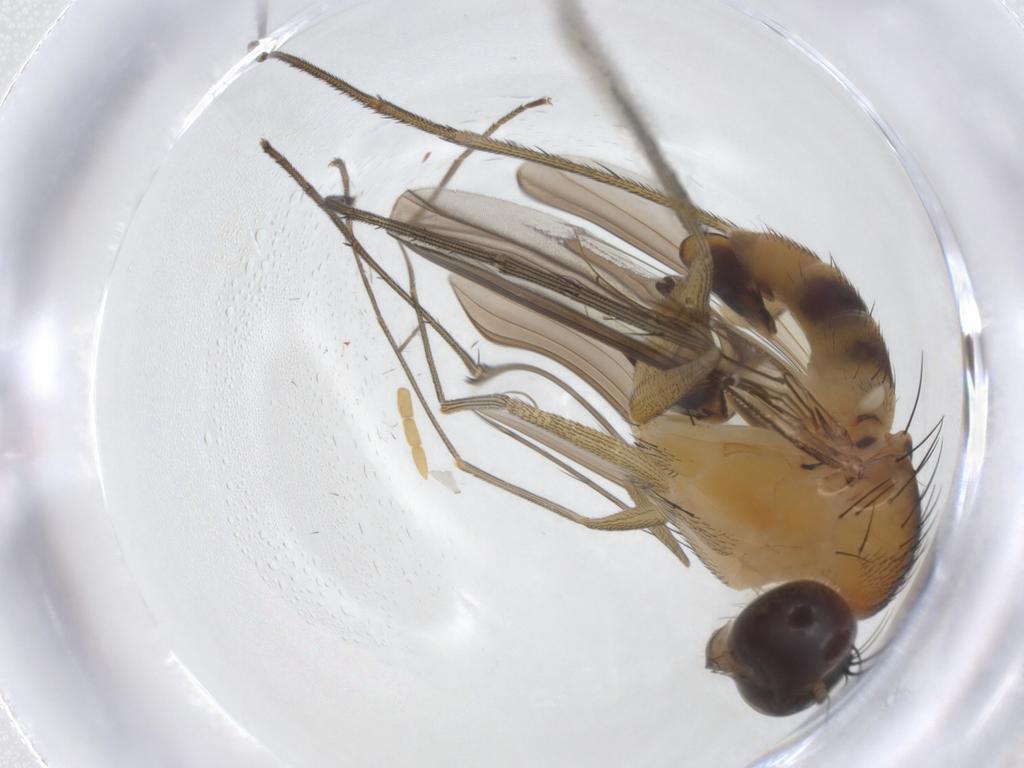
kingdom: Animalia
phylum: Arthropoda
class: Insecta
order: Diptera
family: Dolichopodidae
